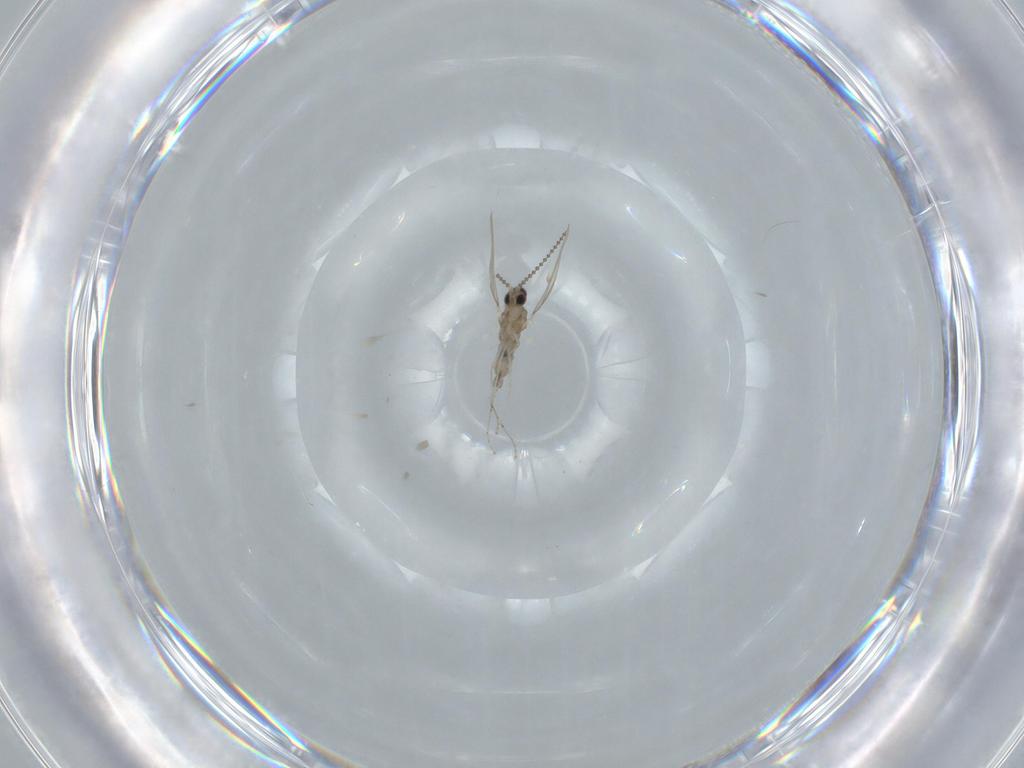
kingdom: Animalia
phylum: Arthropoda
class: Insecta
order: Diptera
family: Cecidomyiidae
